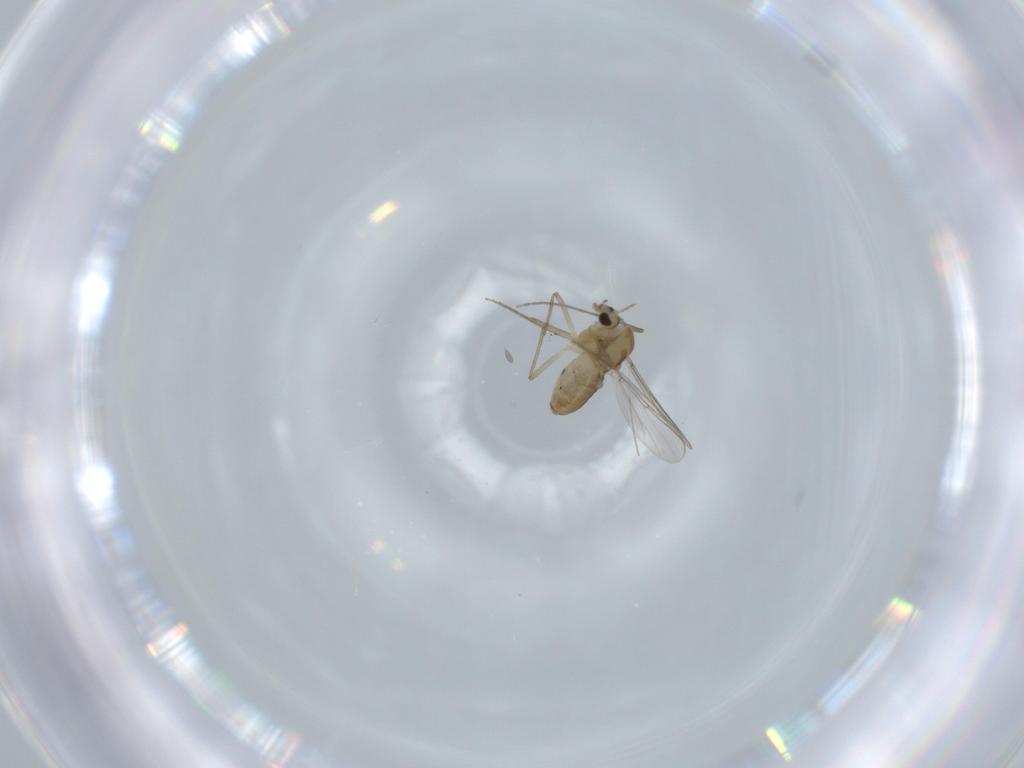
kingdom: Animalia
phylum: Arthropoda
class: Insecta
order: Diptera
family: Chironomidae
